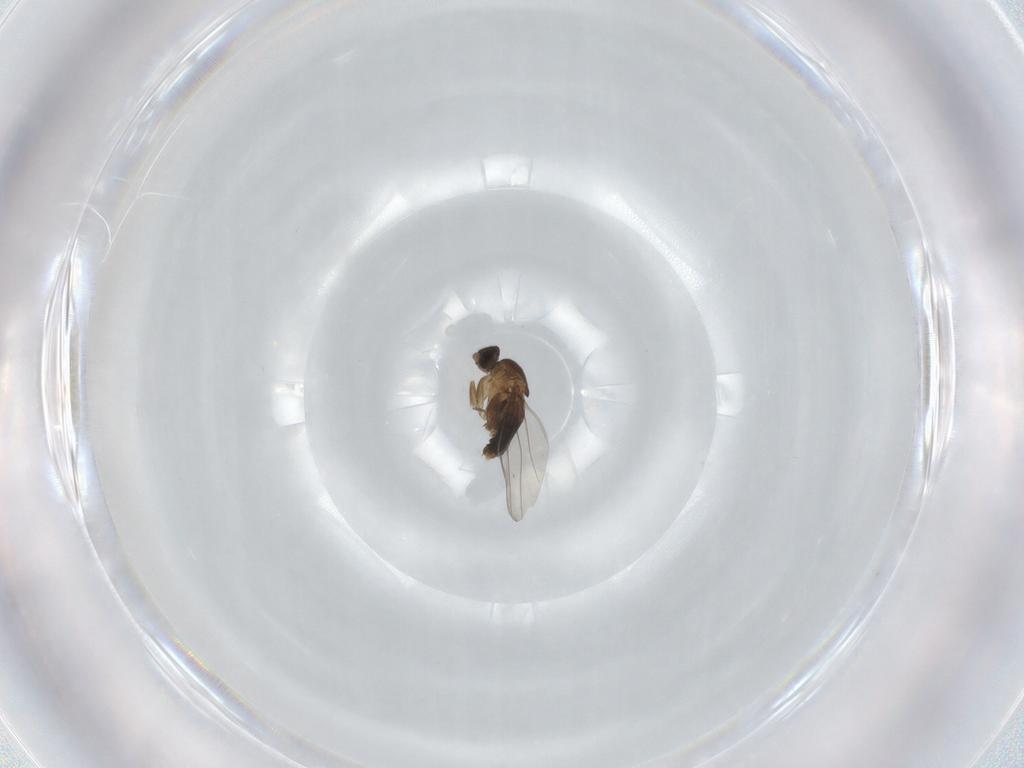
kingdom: Animalia
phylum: Arthropoda
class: Insecta
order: Diptera
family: Phoridae
